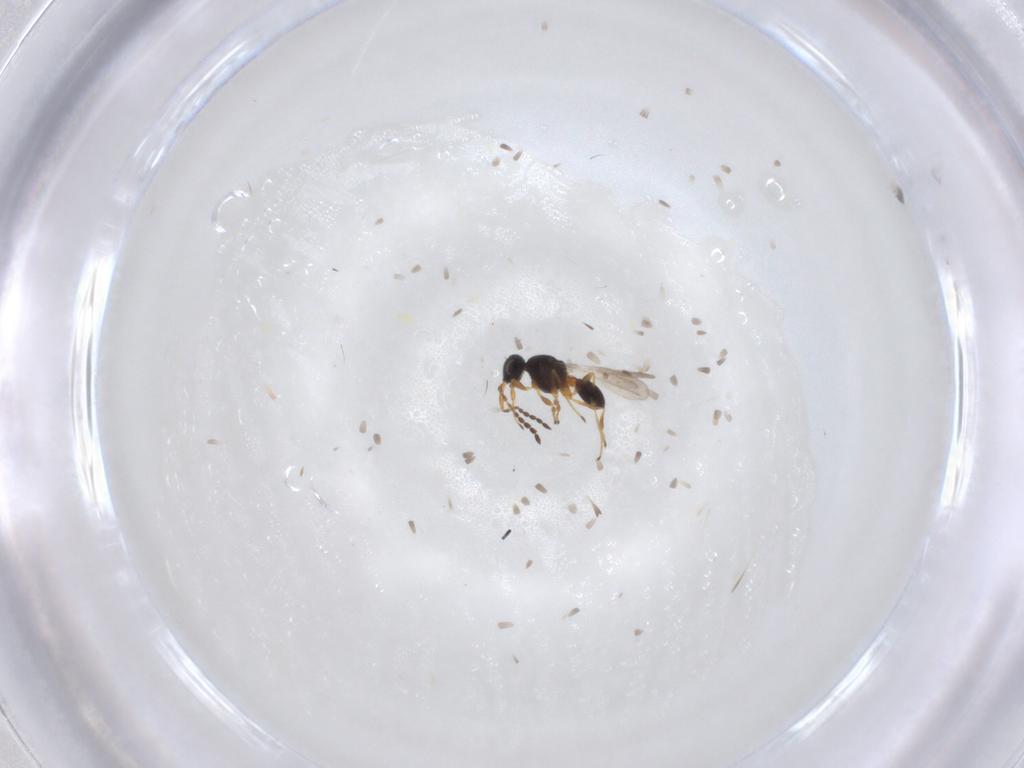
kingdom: Animalia
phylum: Arthropoda
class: Insecta
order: Hymenoptera
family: Platygastridae
